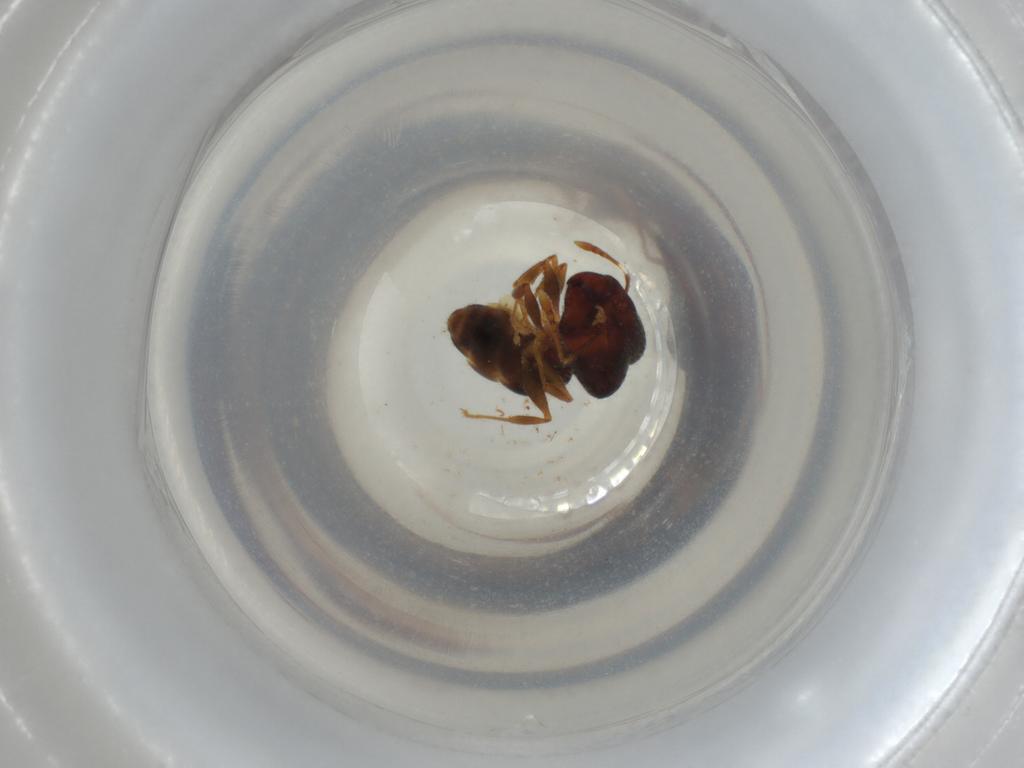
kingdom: Animalia
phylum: Arthropoda
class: Insecta
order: Hymenoptera
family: Formicidae
